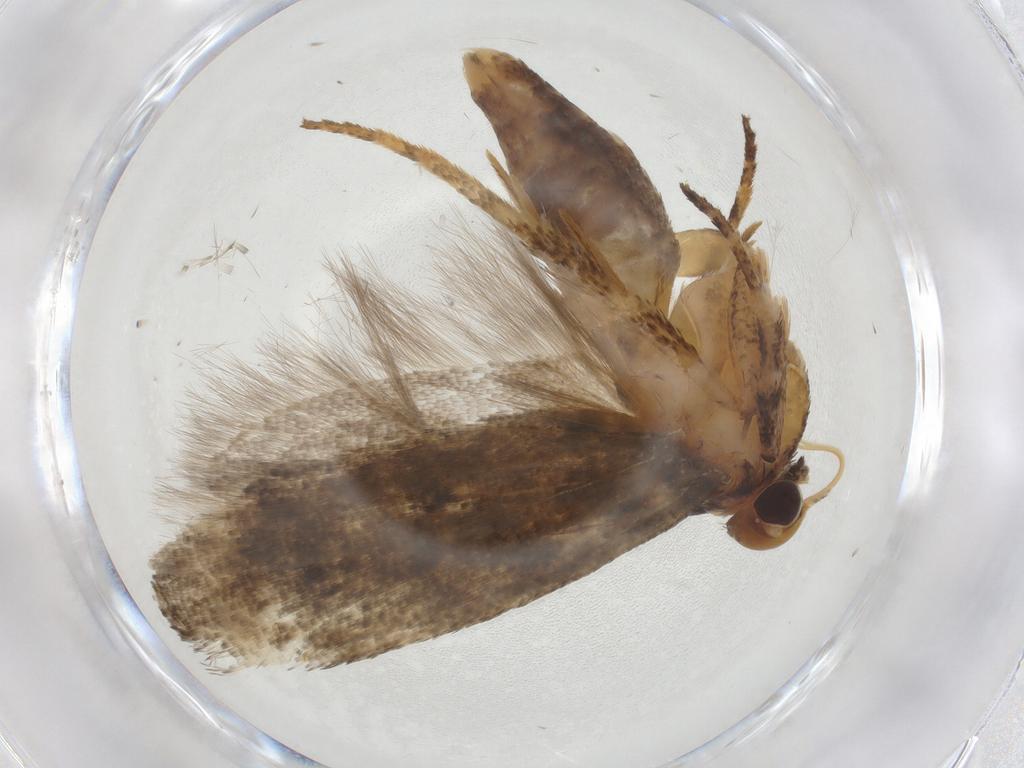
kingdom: Animalia
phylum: Arthropoda
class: Insecta
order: Lepidoptera
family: Gelechiidae
